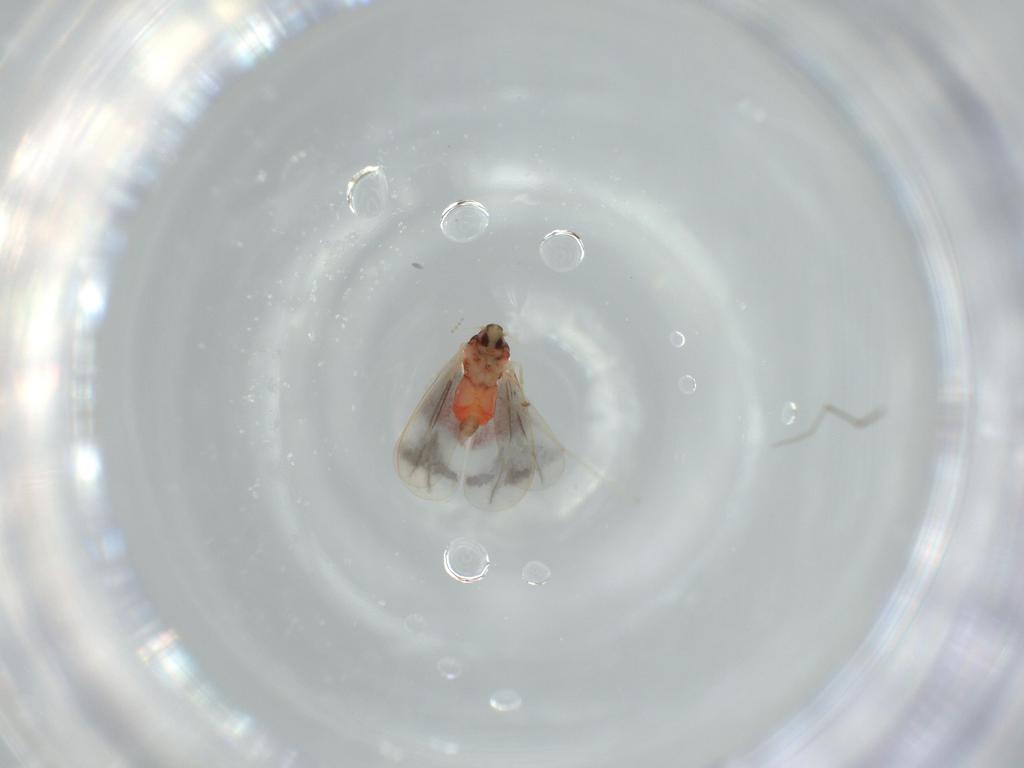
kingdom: Animalia
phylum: Arthropoda
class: Insecta
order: Hemiptera
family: Aleyrodidae
